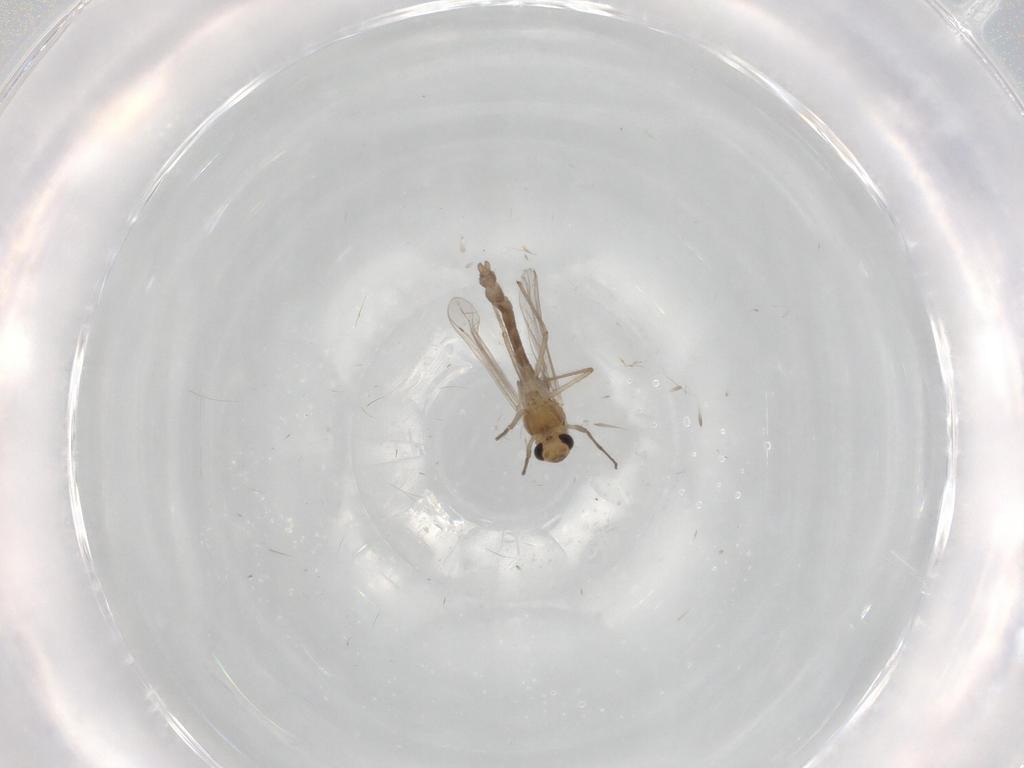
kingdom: Animalia
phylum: Arthropoda
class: Insecta
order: Diptera
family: Chironomidae
